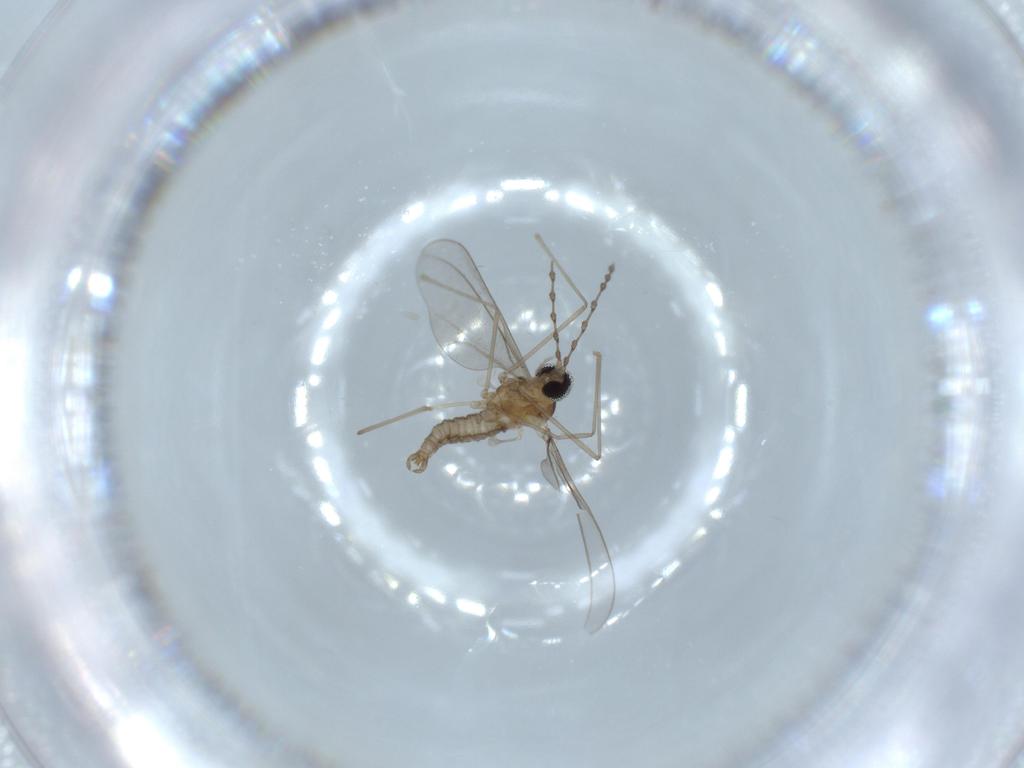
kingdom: Animalia
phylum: Arthropoda
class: Insecta
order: Diptera
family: Cecidomyiidae
